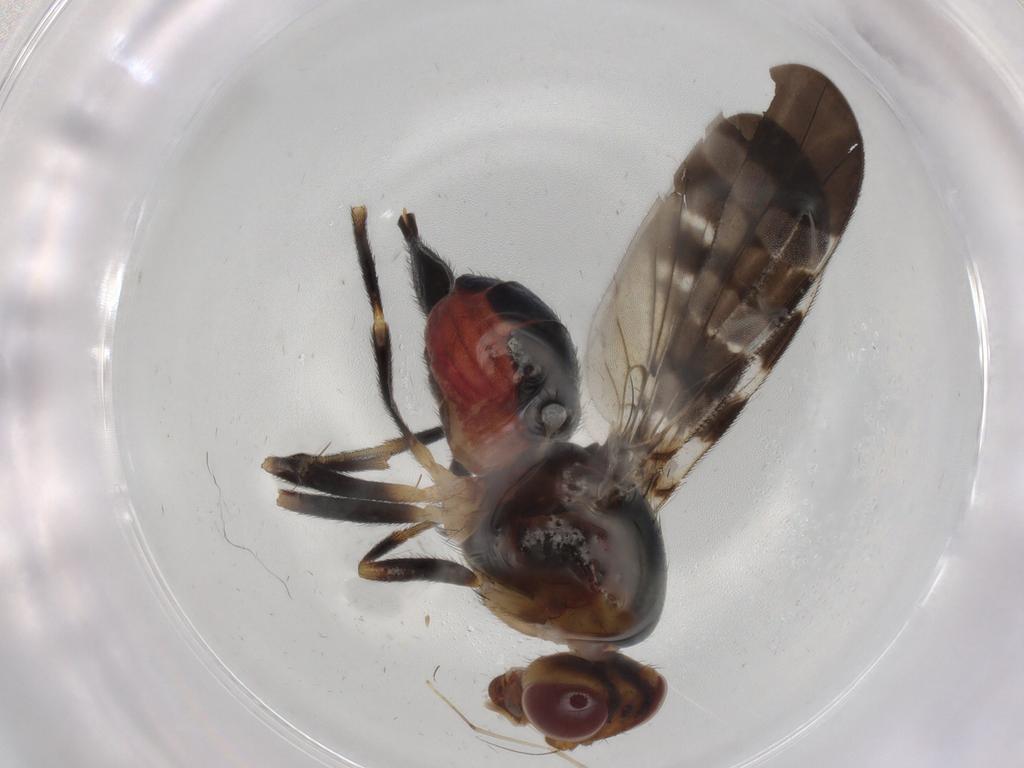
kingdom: Animalia
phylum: Arthropoda
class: Insecta
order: Diptera
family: Tephritidae
